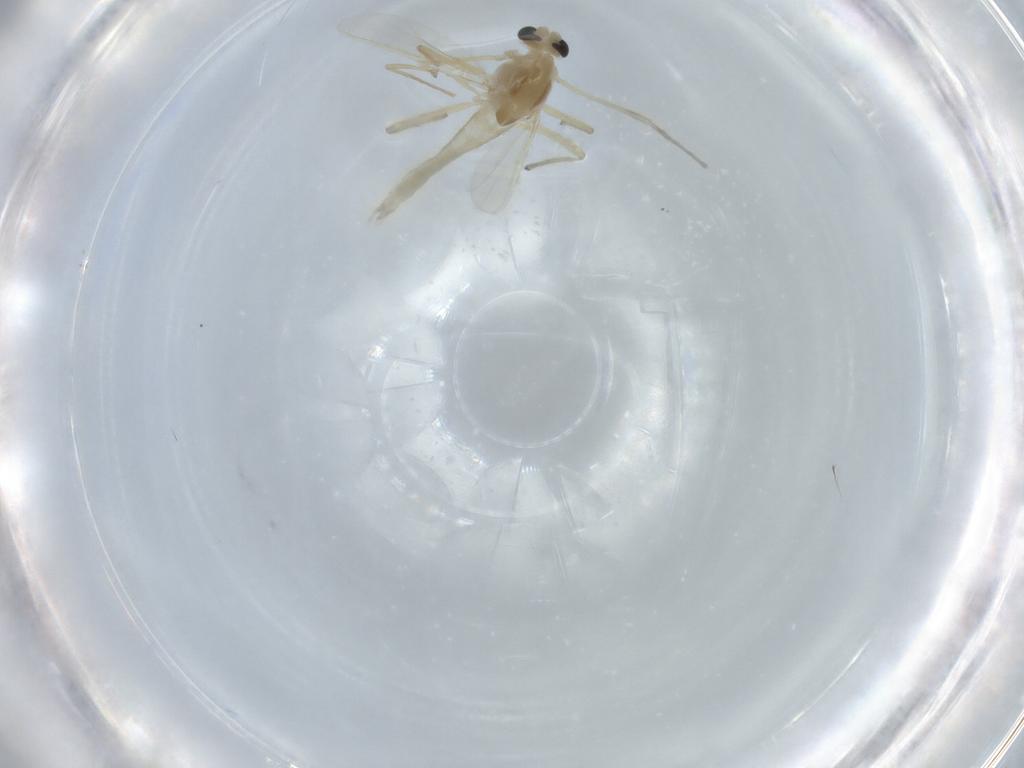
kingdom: Animalia
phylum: Arthropoda
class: Insecta
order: Diptera
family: Chironomidae
